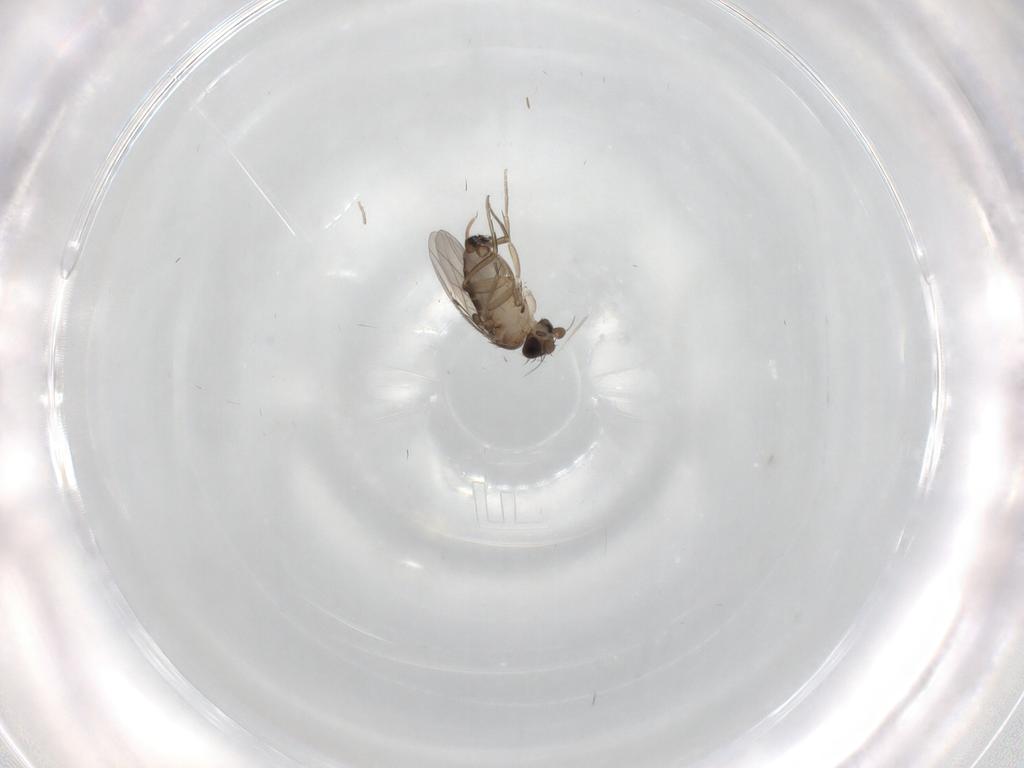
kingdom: Animalia
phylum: Arthropoda
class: Insecta
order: Diptera
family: Phoridae
